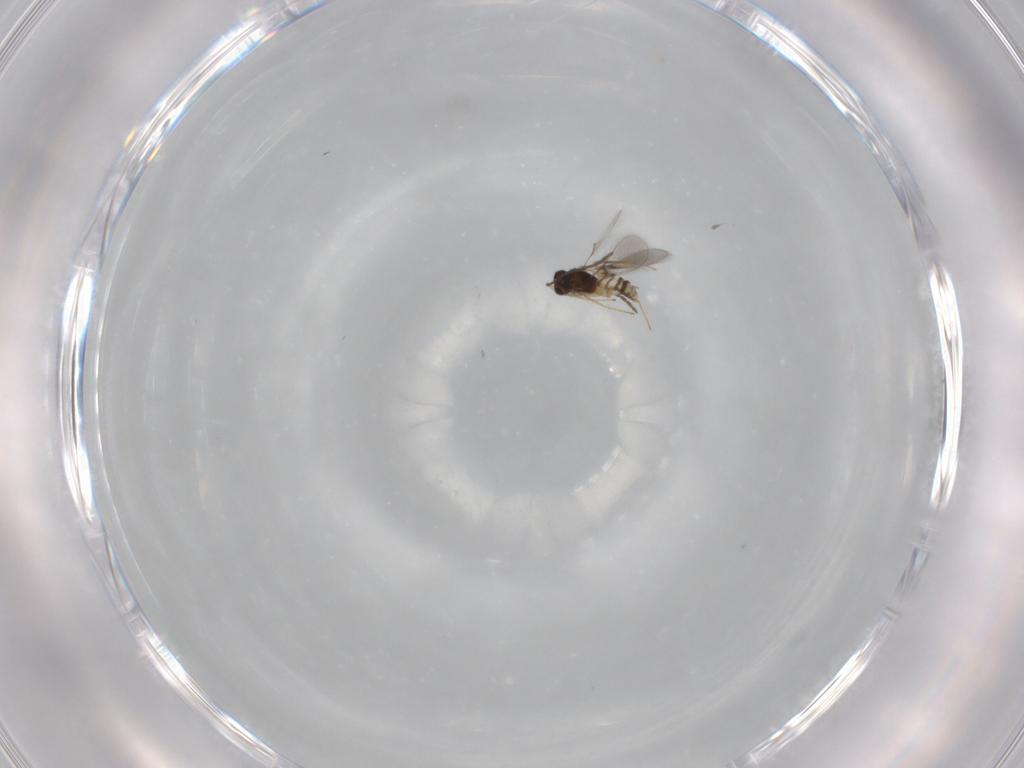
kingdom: Animalia
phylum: Arthropoda
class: Insecta
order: Hymenoptera
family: Mymaridae
